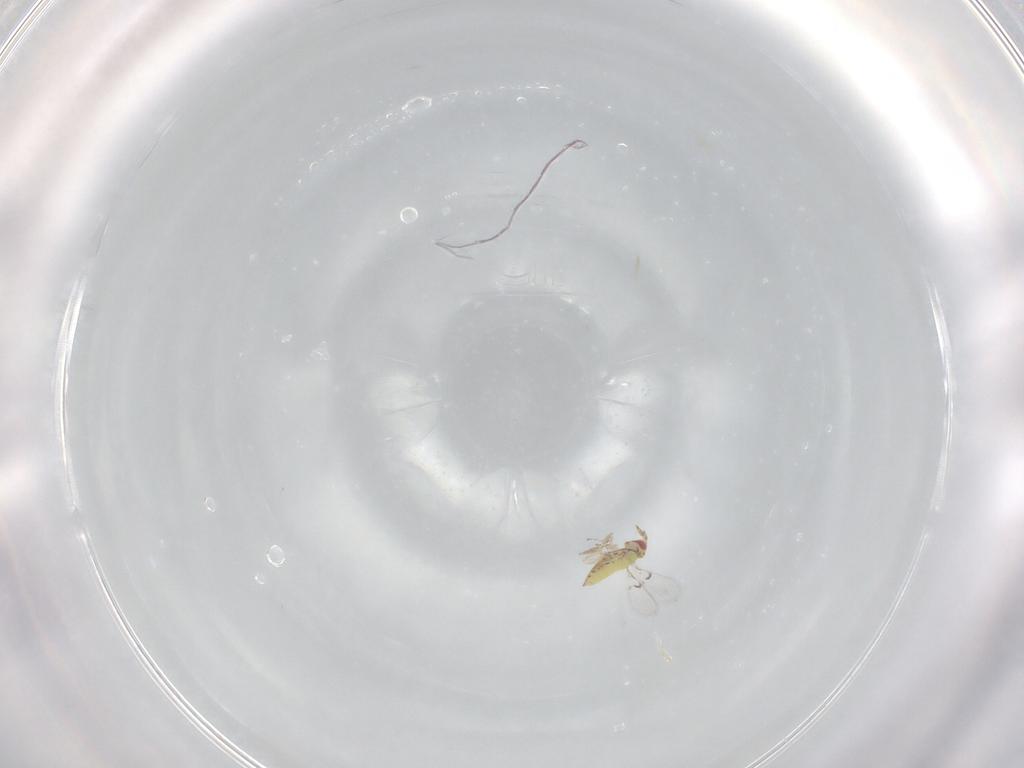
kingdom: Animalia
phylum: Arthropoda
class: Insecta
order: Hymenoptera
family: Trichogrammatidae
